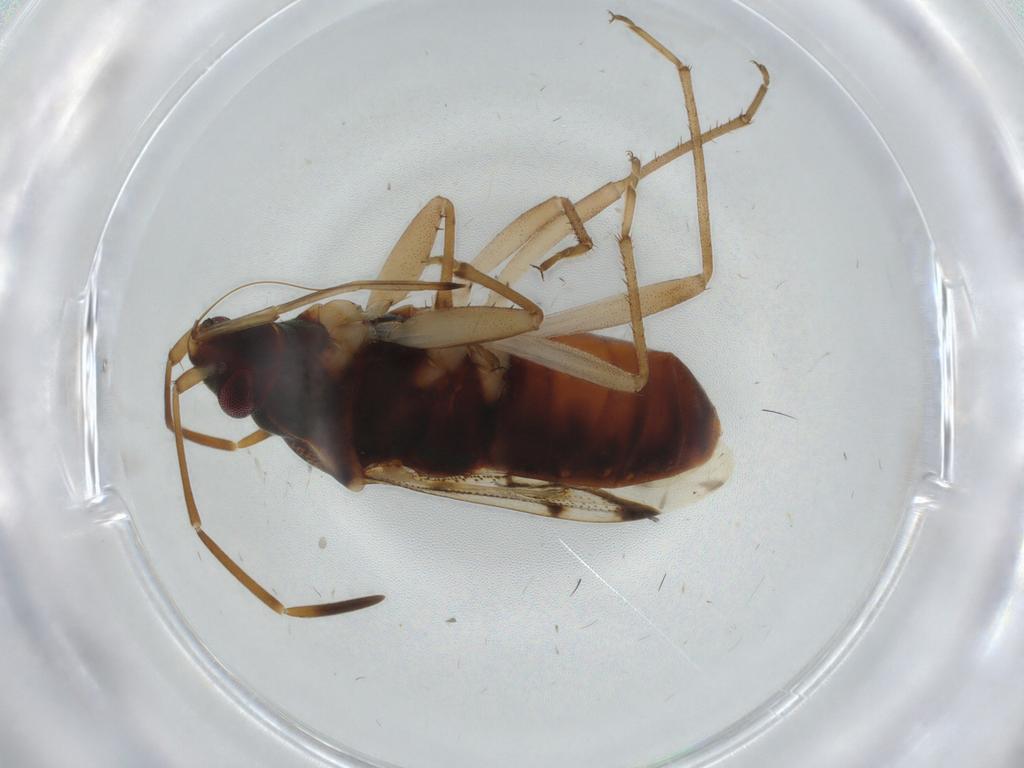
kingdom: Animalia
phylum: Arthropoda
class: Insecta
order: Hemiptera
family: Rhyparochromidae
